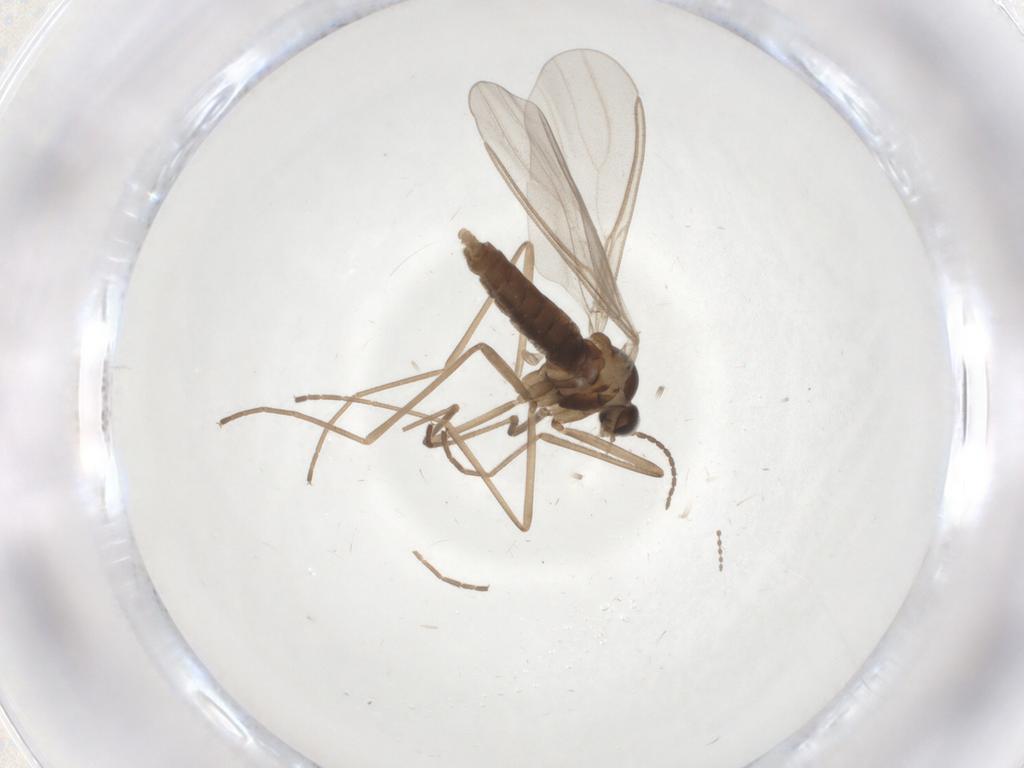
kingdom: Animalia
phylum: Arthropoda
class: Insecta
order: Diptera
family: Cecidomyiidae
